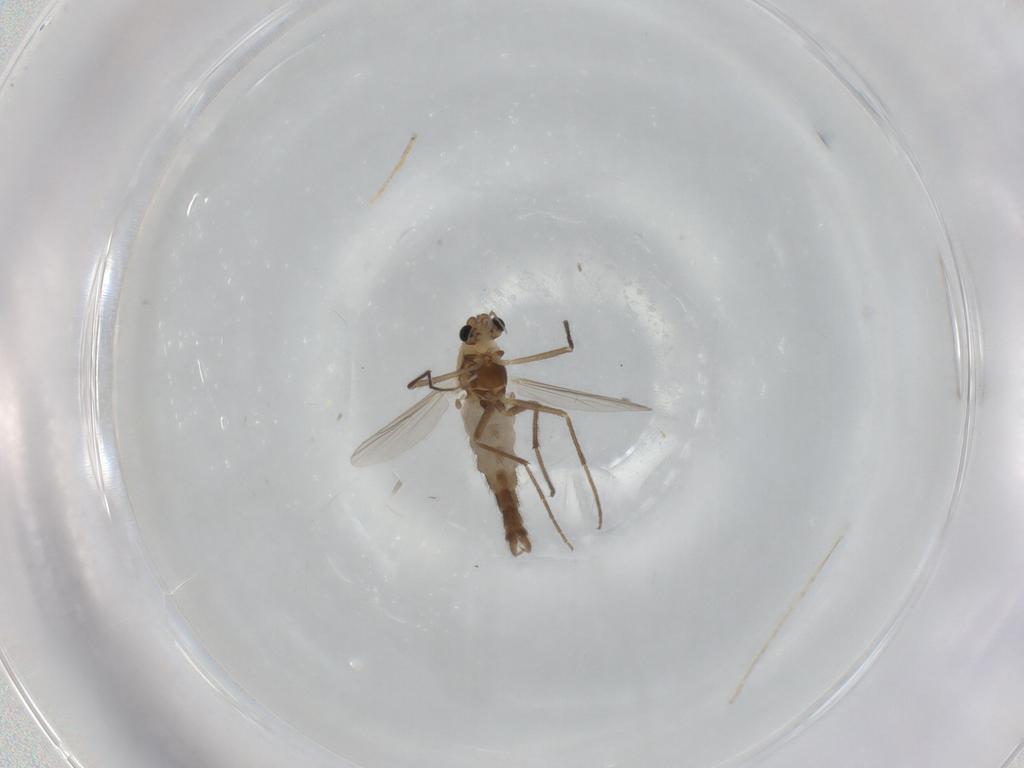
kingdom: Animalia
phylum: Arthropoda
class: Insecta
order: Diptera
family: Chironomidae
